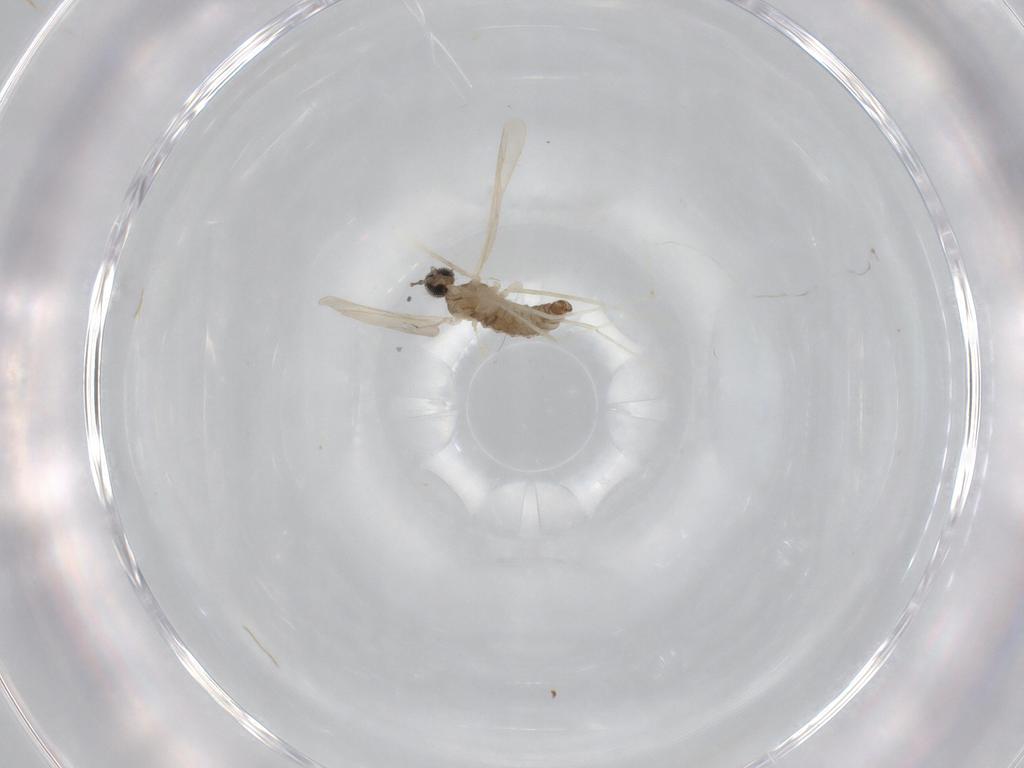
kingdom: Animalia
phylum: Arthropoda
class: Insecta
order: Diptera
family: Cecidomyiidae
